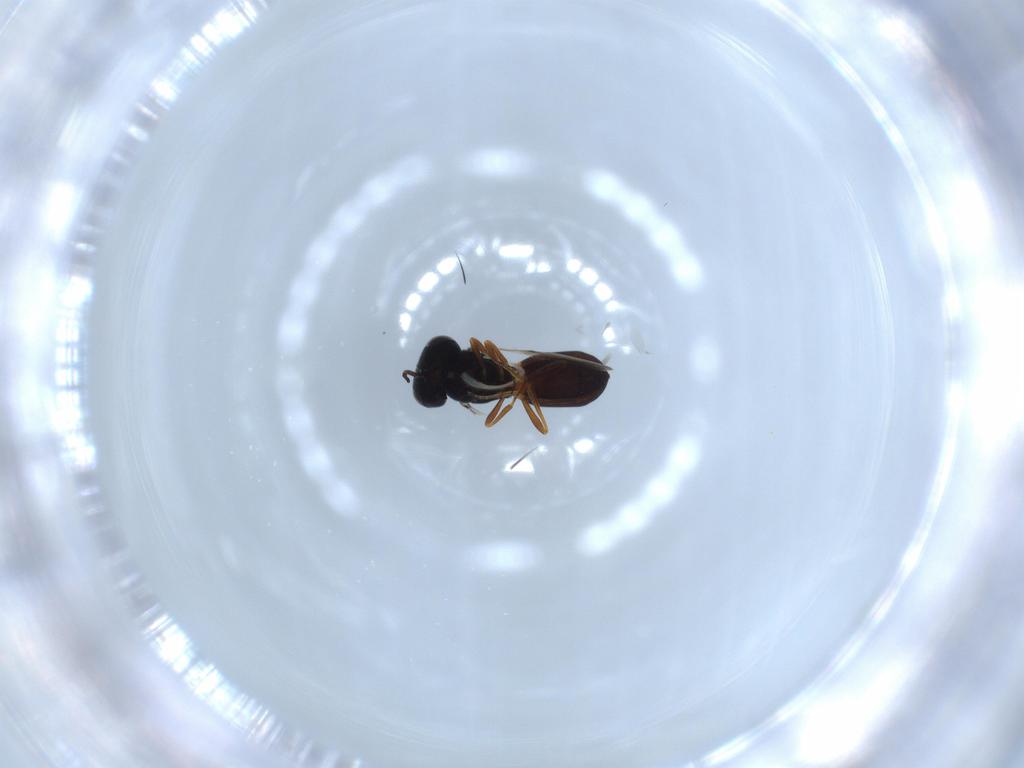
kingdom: Animalia
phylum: Arthropoda
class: Insecta
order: Hymenoptera
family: Scelionidae
